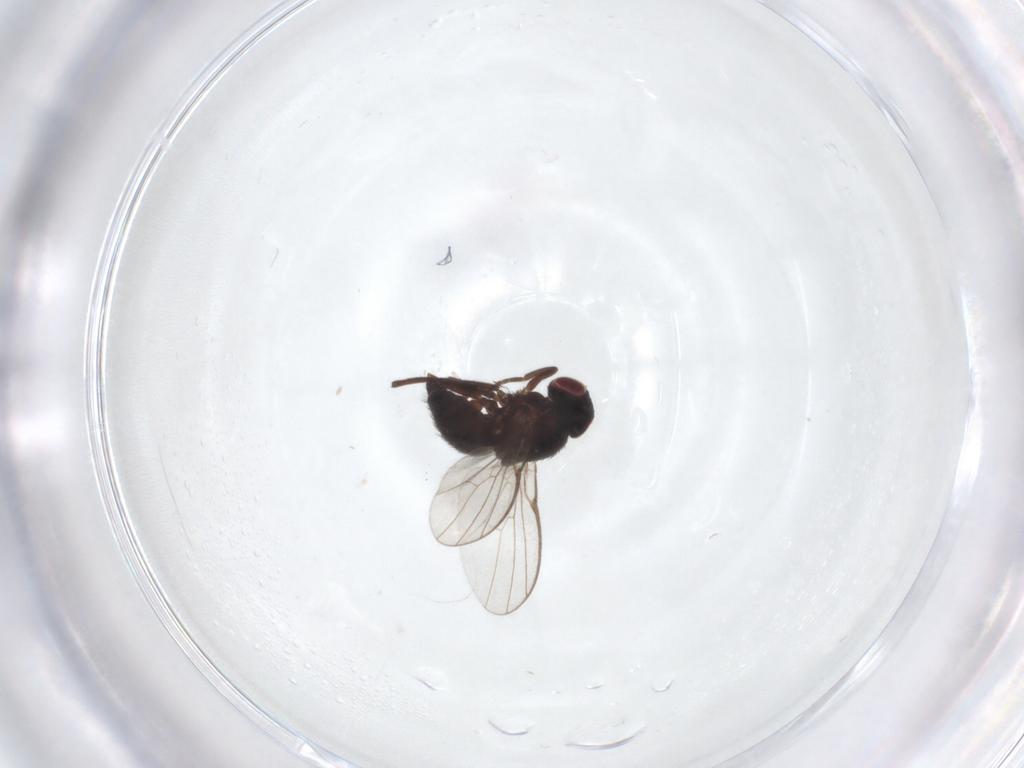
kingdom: Animalia
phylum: Arthropoda
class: Insecta
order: Diptera
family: Agromyzidae
